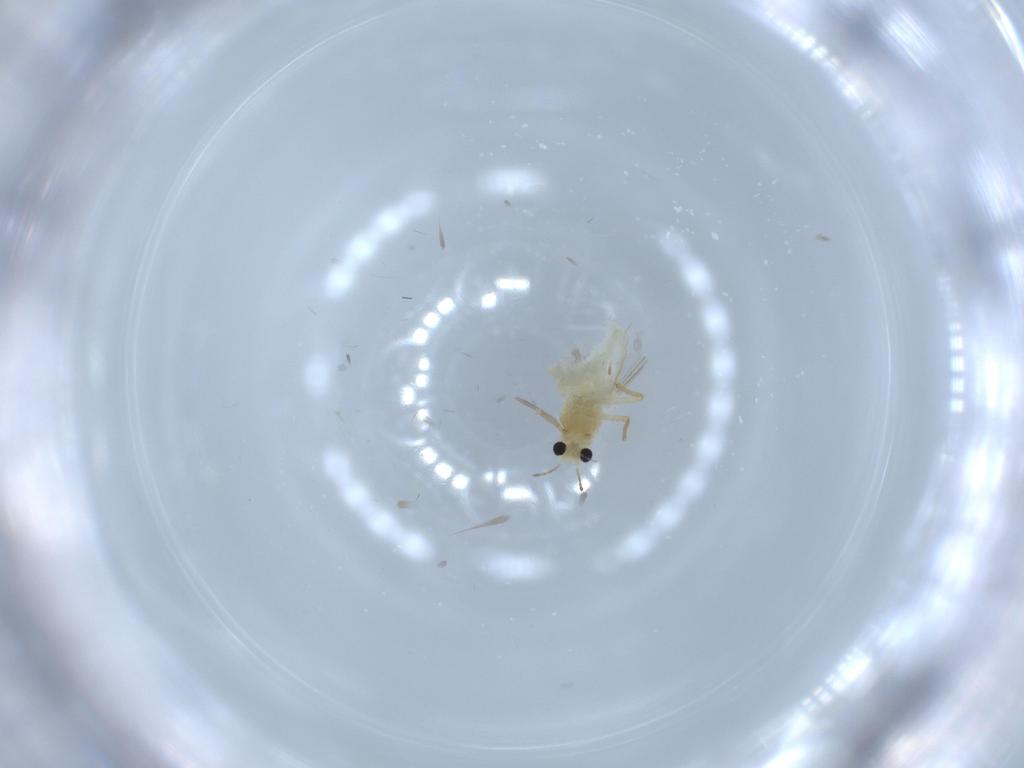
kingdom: Animalia
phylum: Arthropoda
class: Insecta
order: Diptera
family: Chironomidae
